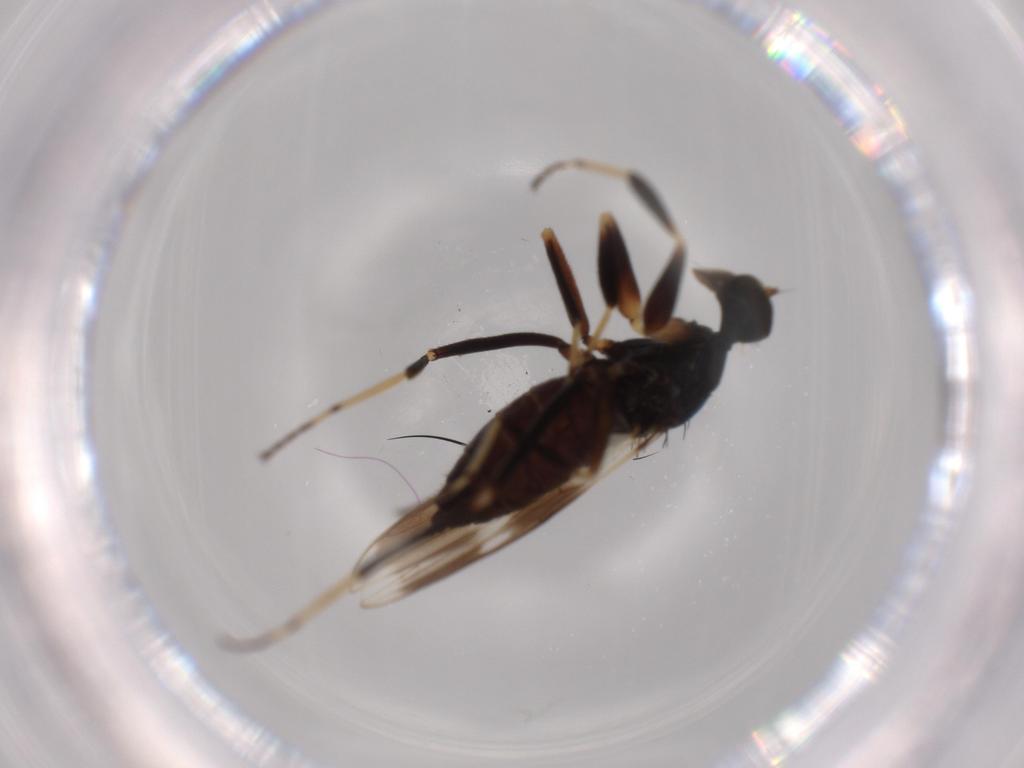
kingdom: Animalia
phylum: Arthropoda
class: Insecta
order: Diptera
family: Hybotidae
